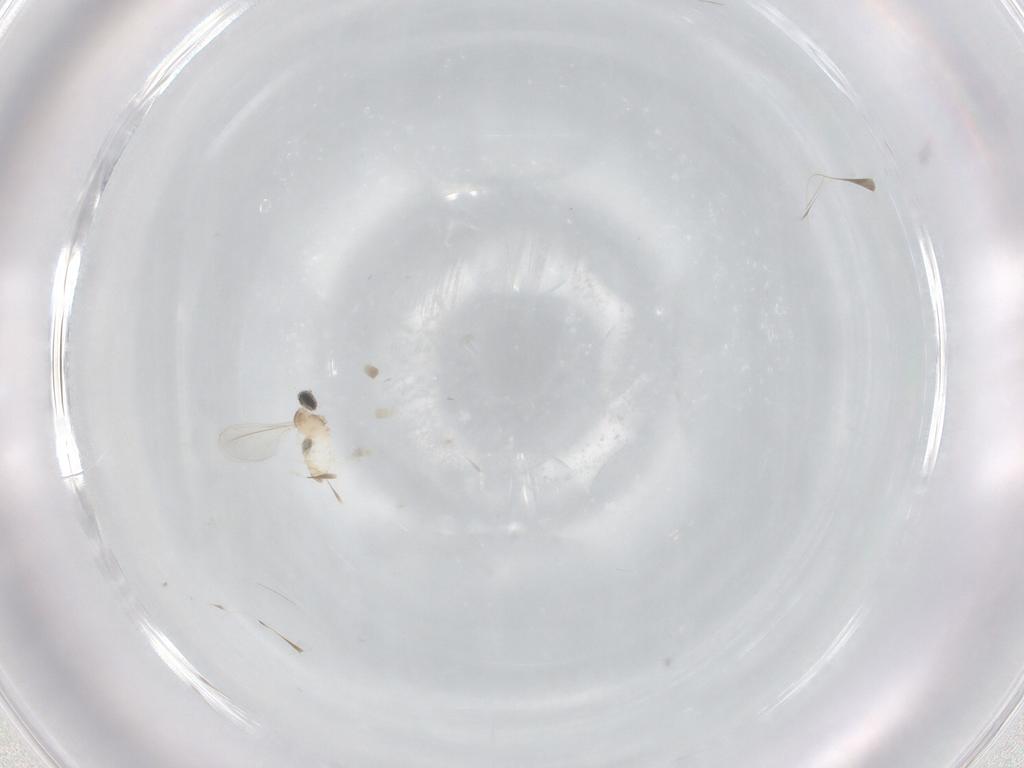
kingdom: Animalia
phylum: Arthropoda
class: Insecta
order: Diptera
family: Cecidomyiidae
